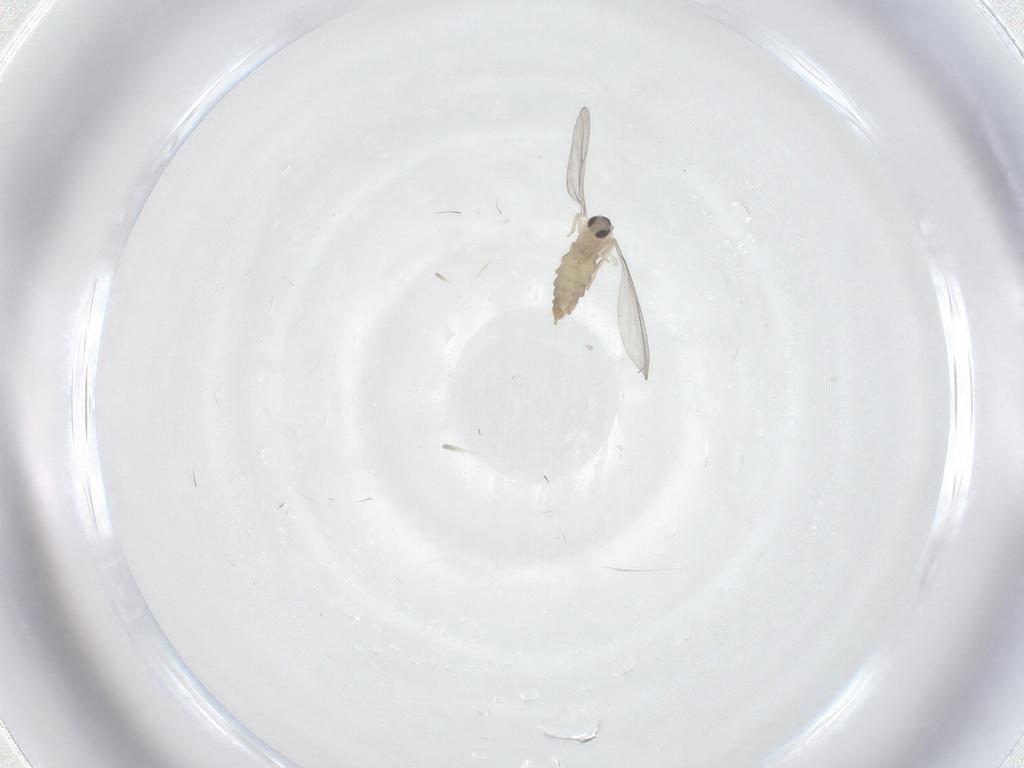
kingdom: Animalia
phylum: Arthropoda
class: Insecta
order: Diptera
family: Cecidomyiidae
